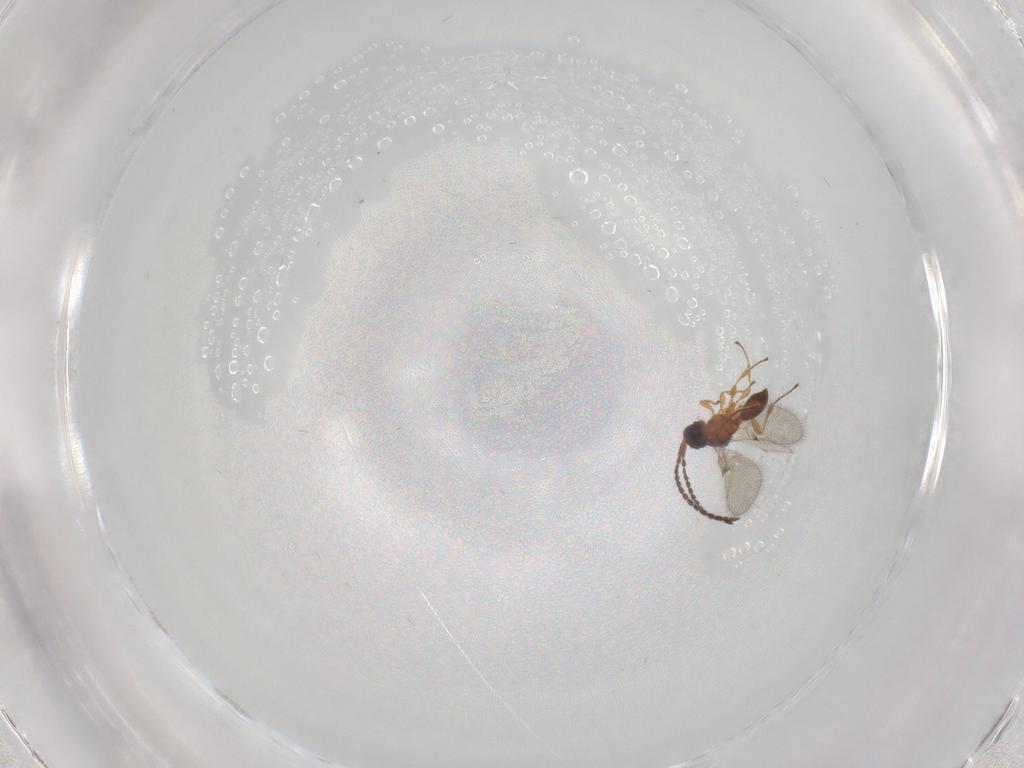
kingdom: Animalia
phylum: Arthropoda
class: Insecta
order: Hymenoptera
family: Diapriidae
